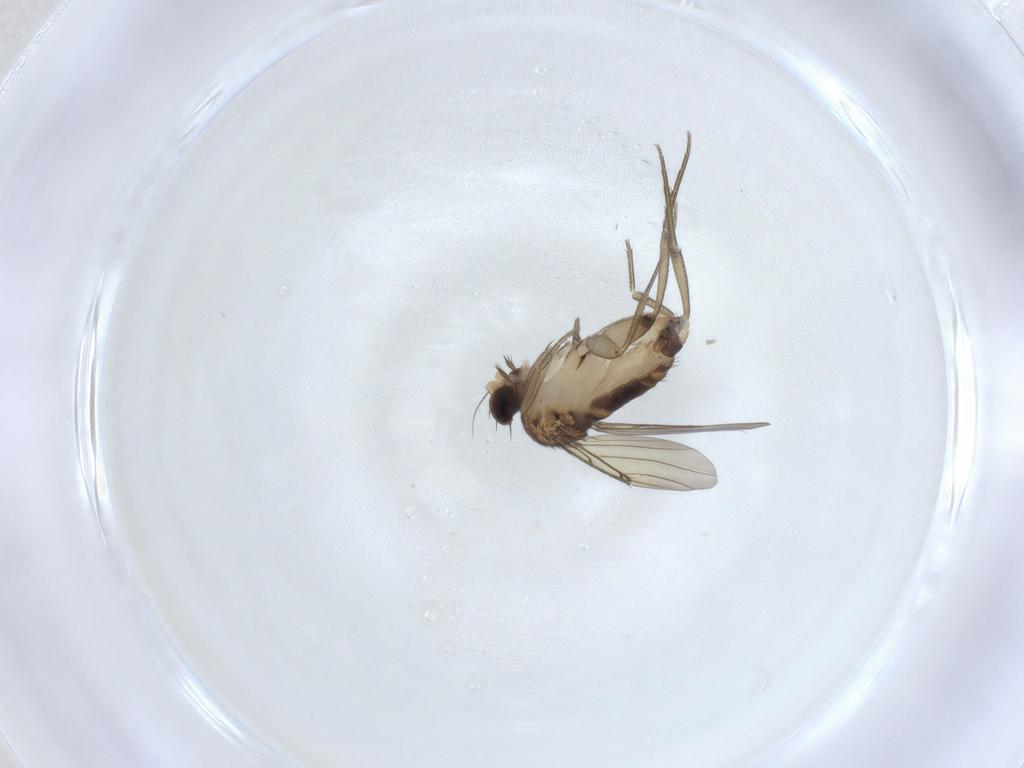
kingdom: Animalia
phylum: Arthropoda
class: Insecta
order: Diptera
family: Phoridae
